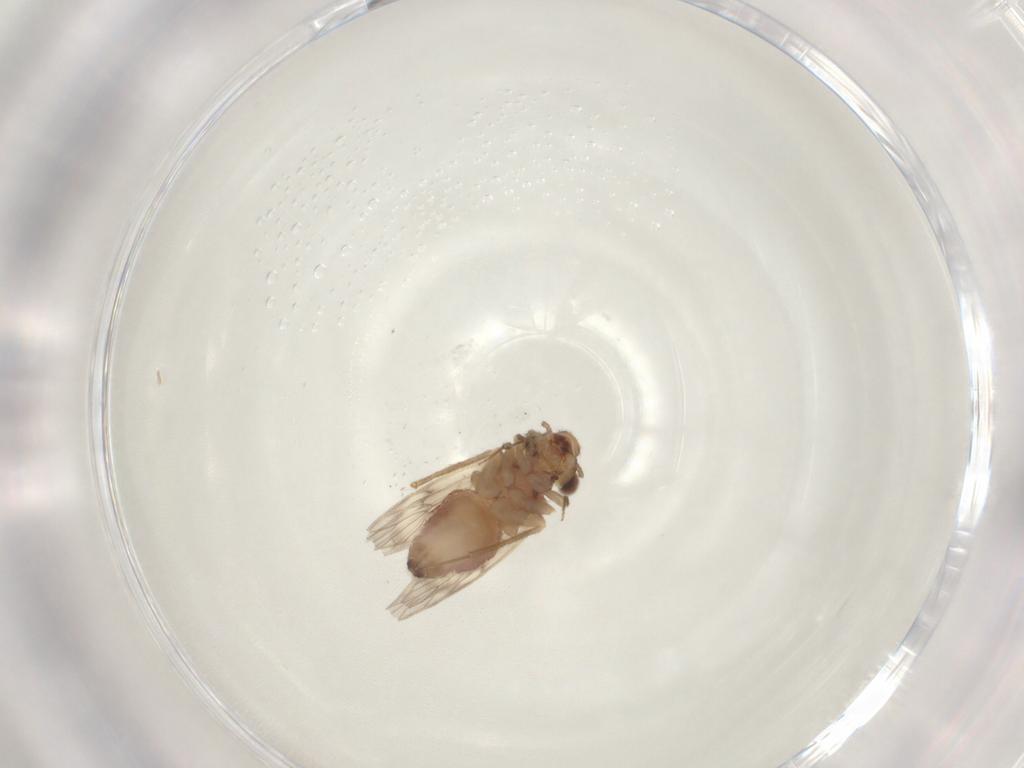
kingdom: Animalia
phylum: Arthropoda
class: Insecta
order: Psocodea
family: Lepidopsocidae
